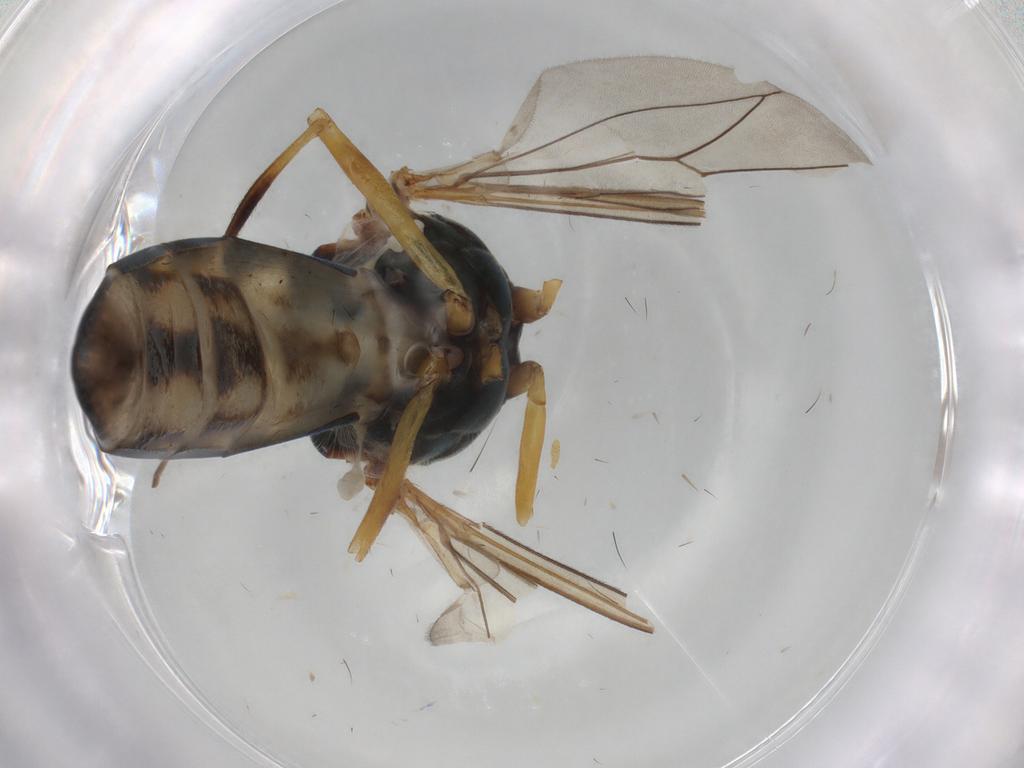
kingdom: Animalia
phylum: Arthropoda
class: Insecta
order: Diptera
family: Syrphidae
